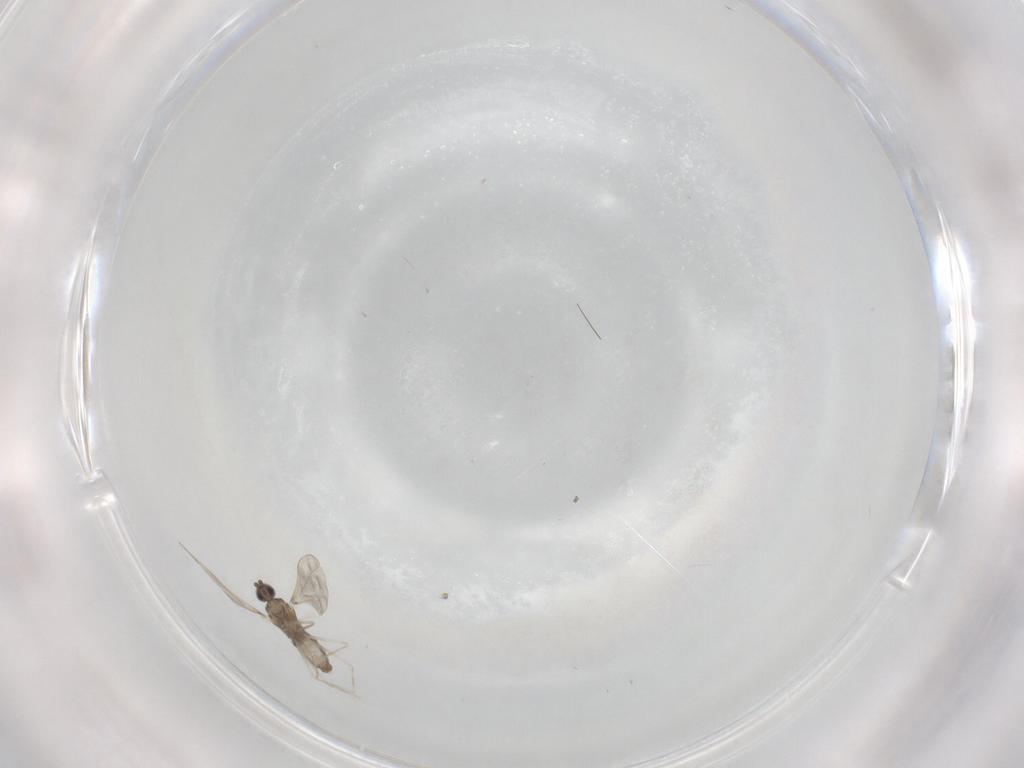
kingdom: Animalia
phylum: Arthropoda
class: Insecta
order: Diptera
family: Cecidomyiidae
